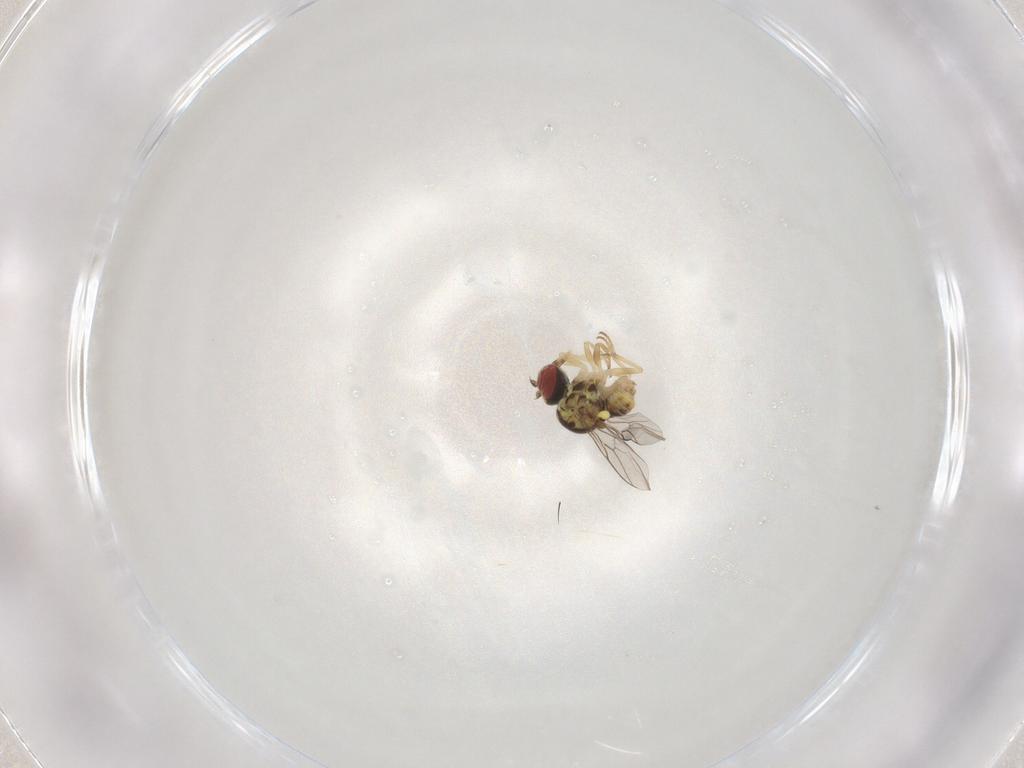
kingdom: Animalia
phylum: Arthropoda
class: Insecta
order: Diptera
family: Bombyliidae
